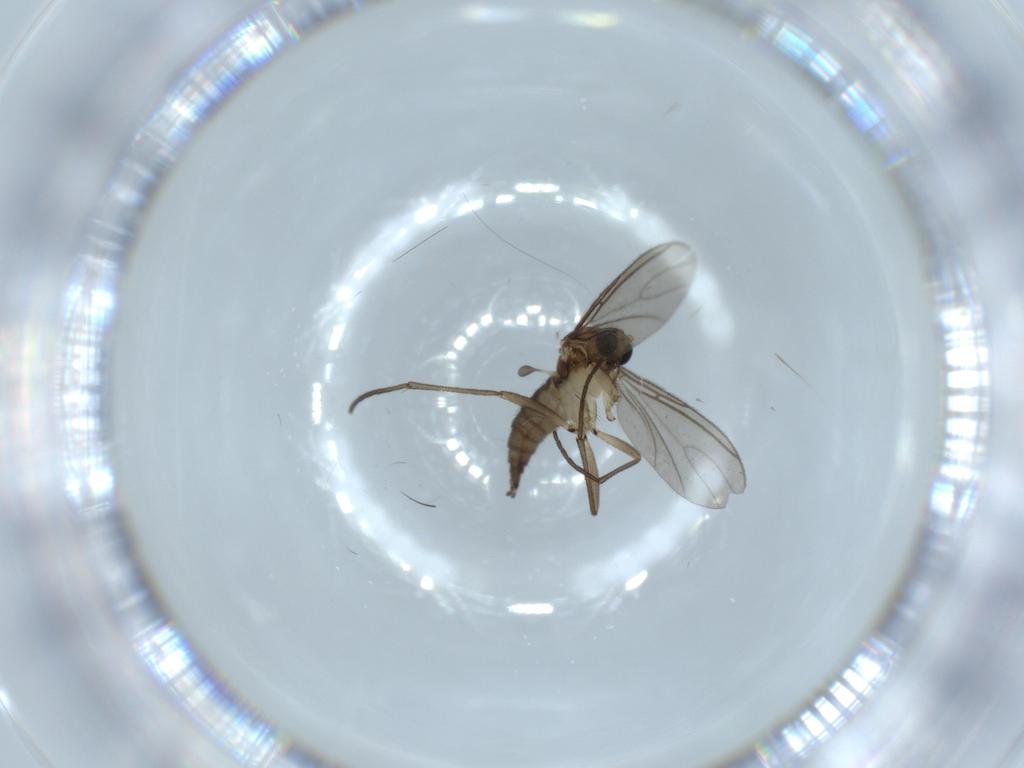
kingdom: Animalia
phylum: Arthropoda
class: Insecta
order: Diptera
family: Sciaridae
